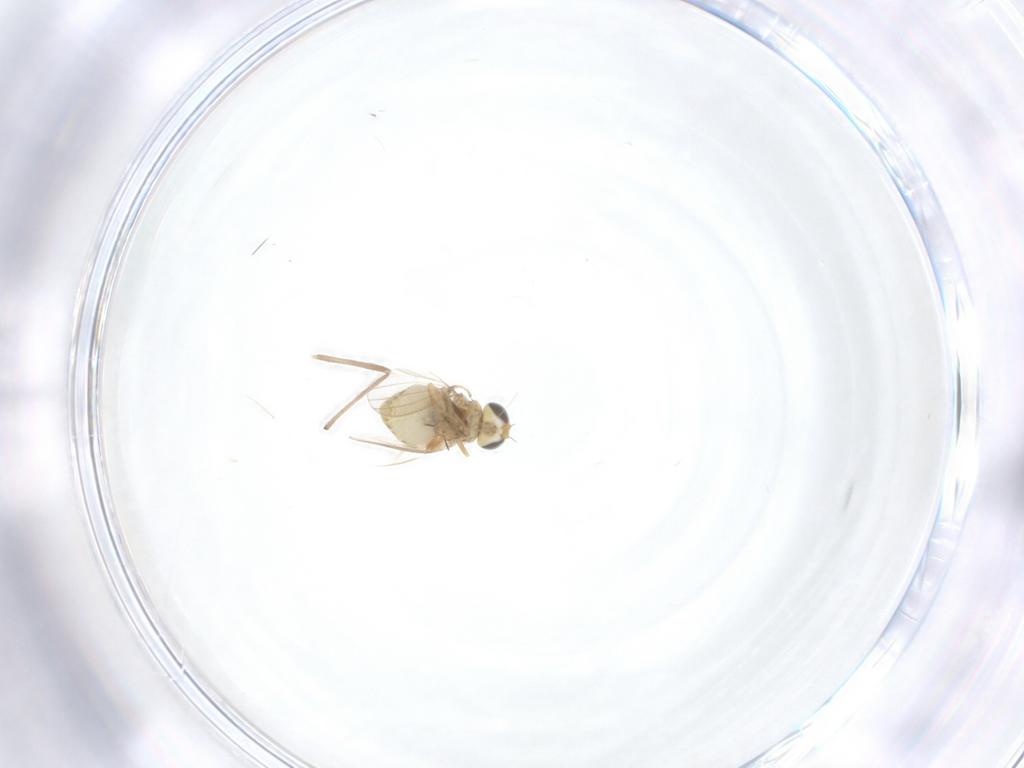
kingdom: Animalia
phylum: Arthropoda
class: Insecta
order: Diptera
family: Chyromyidae
